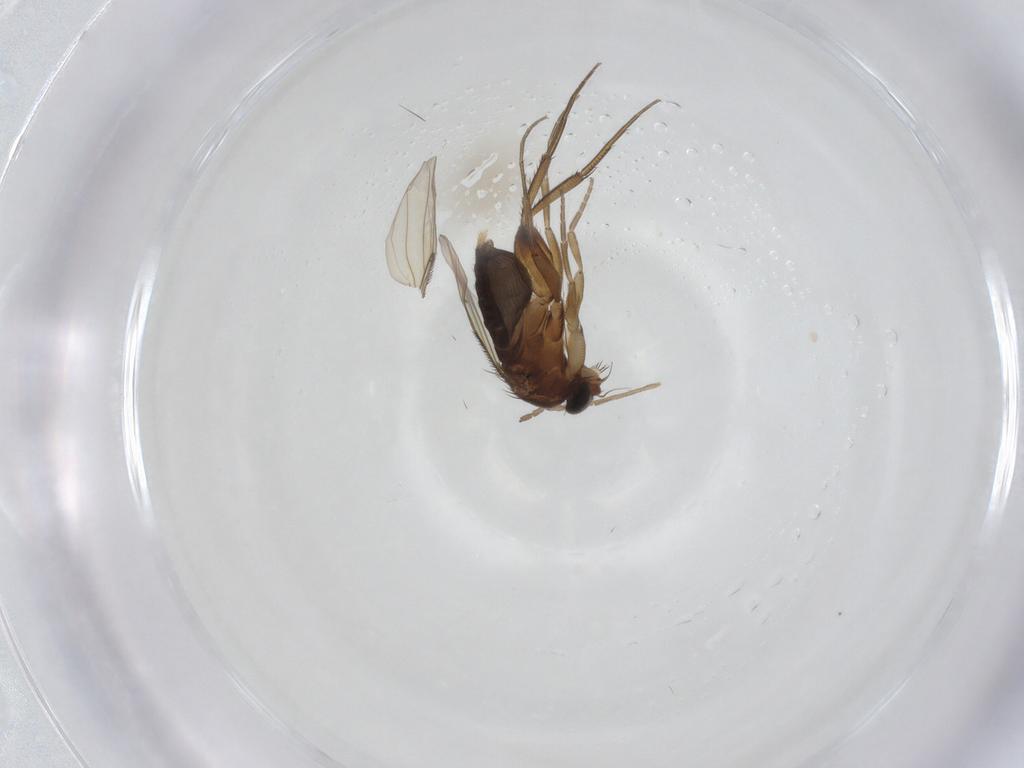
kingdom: Animalia
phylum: Arthropoda
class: Insecta
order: Diptera
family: Phoridae
